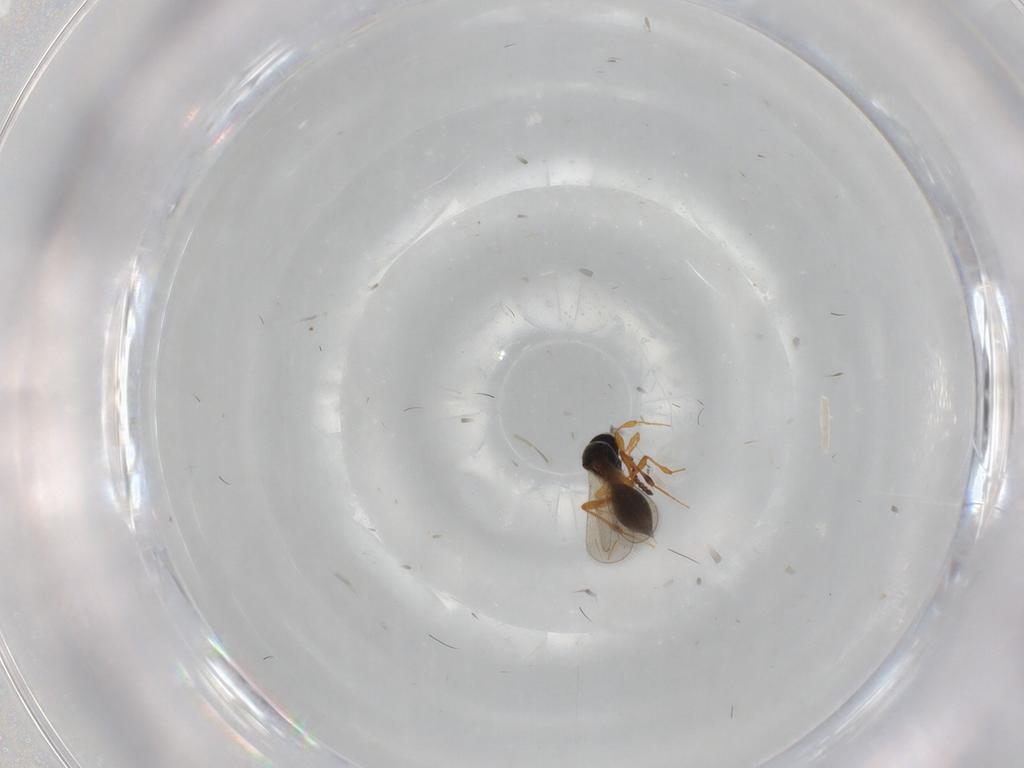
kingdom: Animalia
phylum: Arthropoda
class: Insecta
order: Hymenoptera
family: Platygastridae
